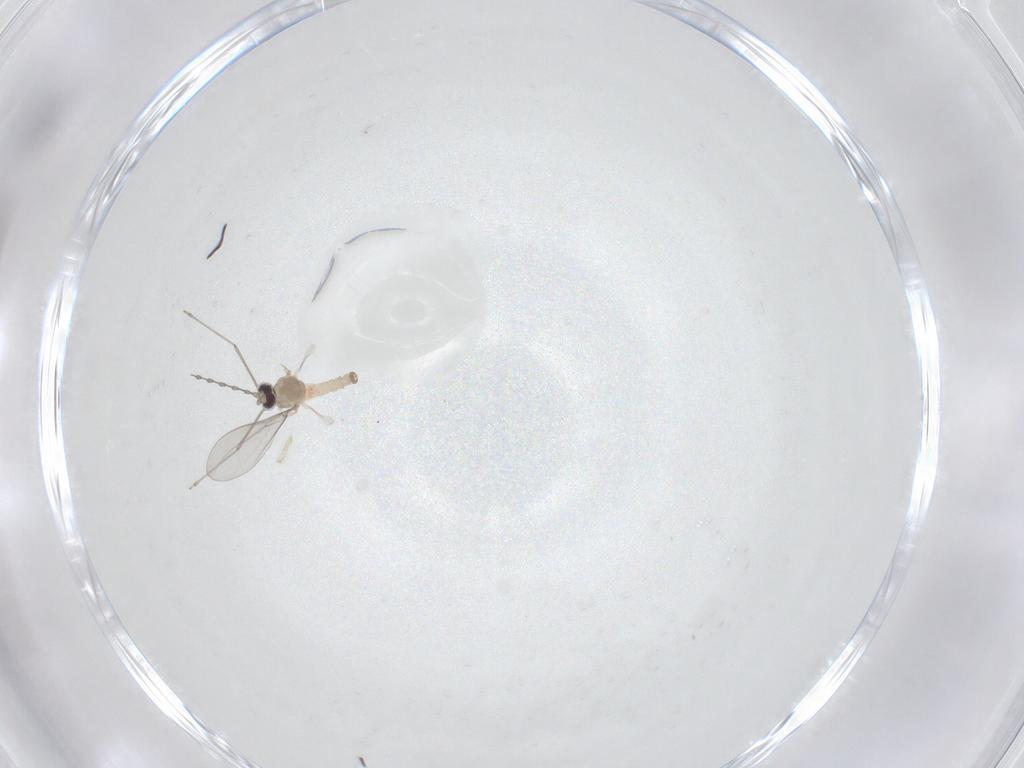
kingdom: Animalia
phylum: Arthropoda
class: Insecta
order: Diptera
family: Cecidomyiidae
